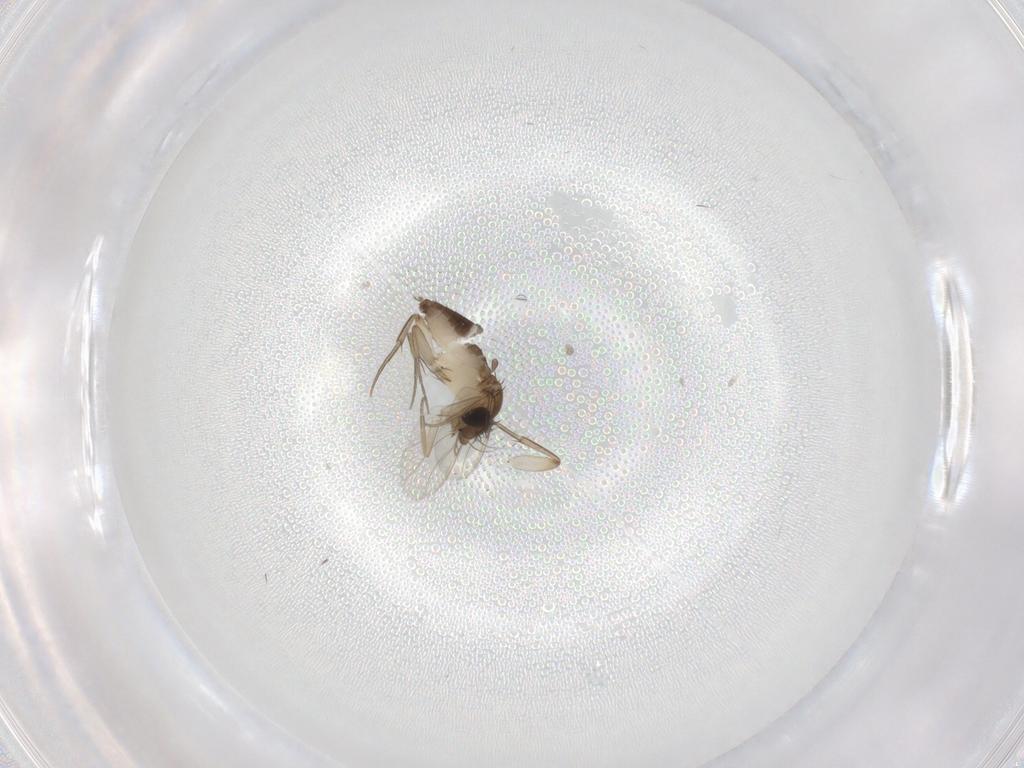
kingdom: Animalia
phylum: Arthropoda
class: Insecta
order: Diptera
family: Phoridae
